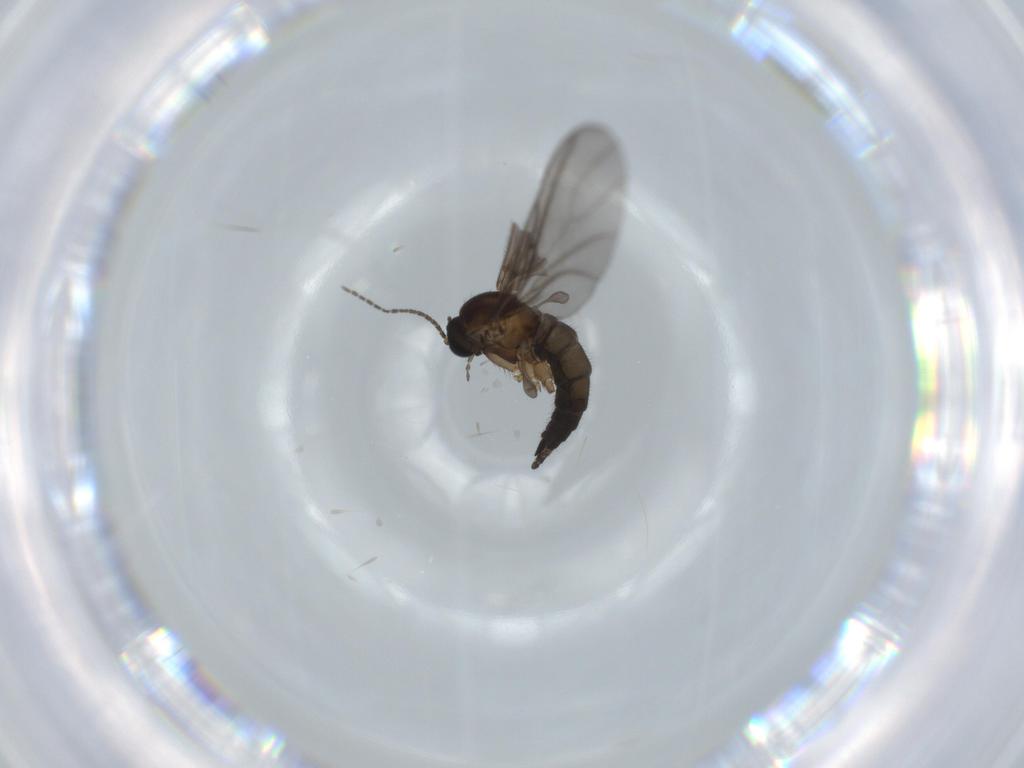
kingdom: Animalia
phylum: Arthropoda
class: Insecta
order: Diptera
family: Sciaridae
